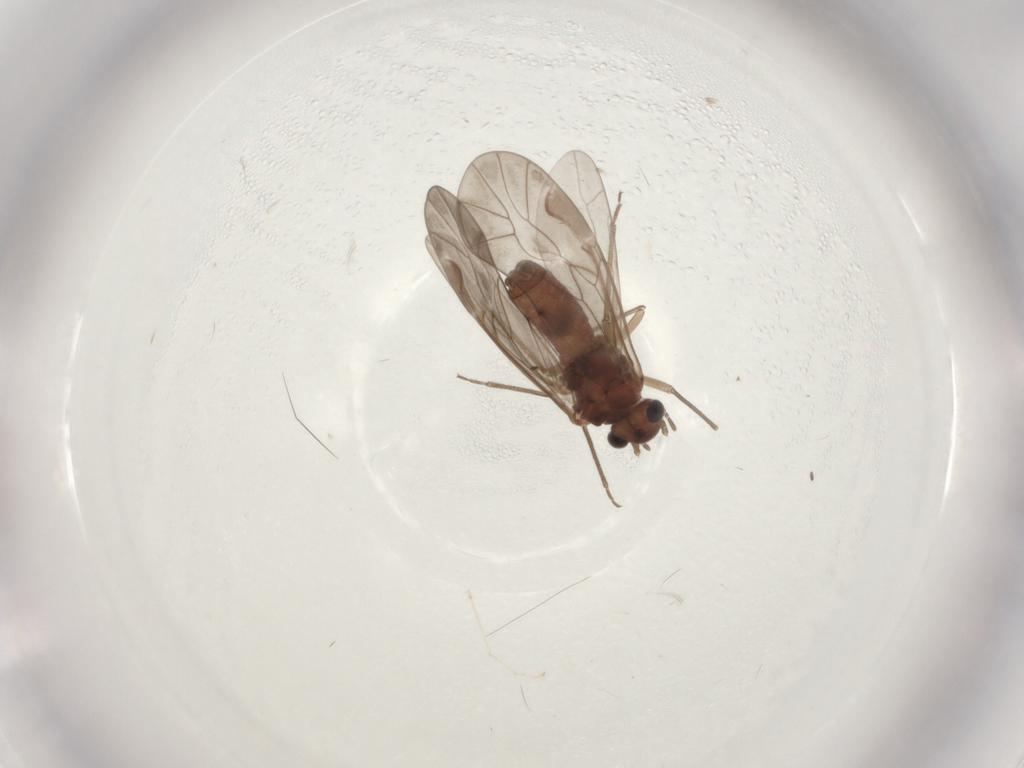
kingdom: Animalia
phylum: Arthropoda
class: Insecta
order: Psocodea
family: Peripsocidae
